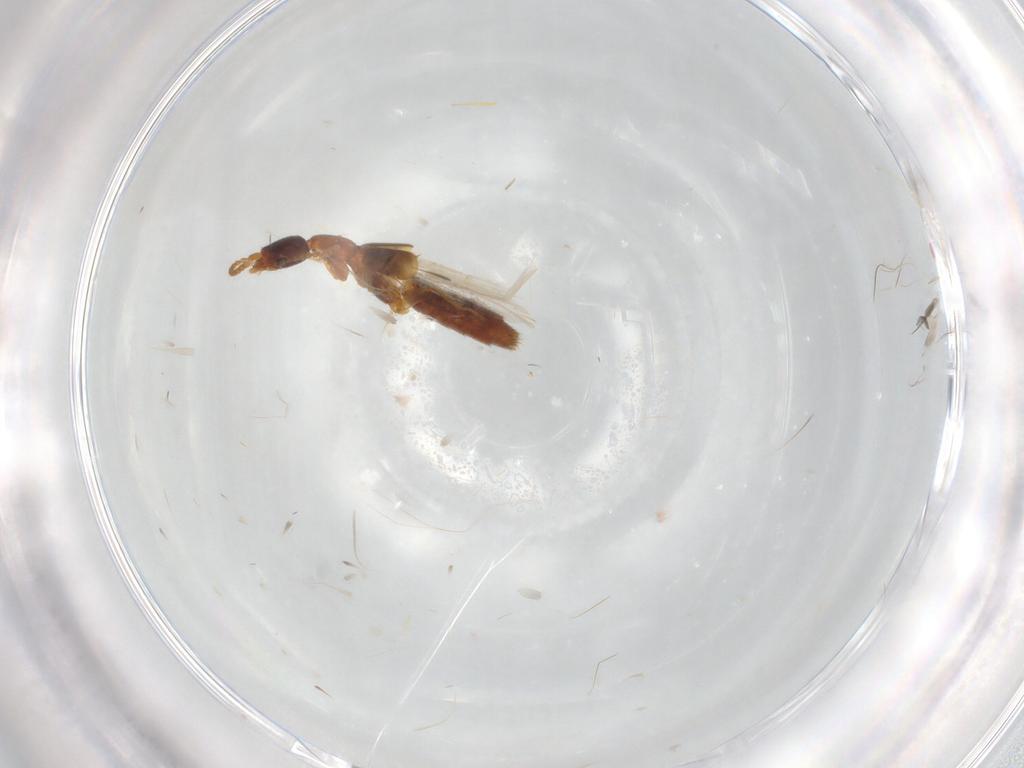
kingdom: Animalia
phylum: Arthropoda
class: Insecta
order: Coleoptera
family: Staphylinidae
